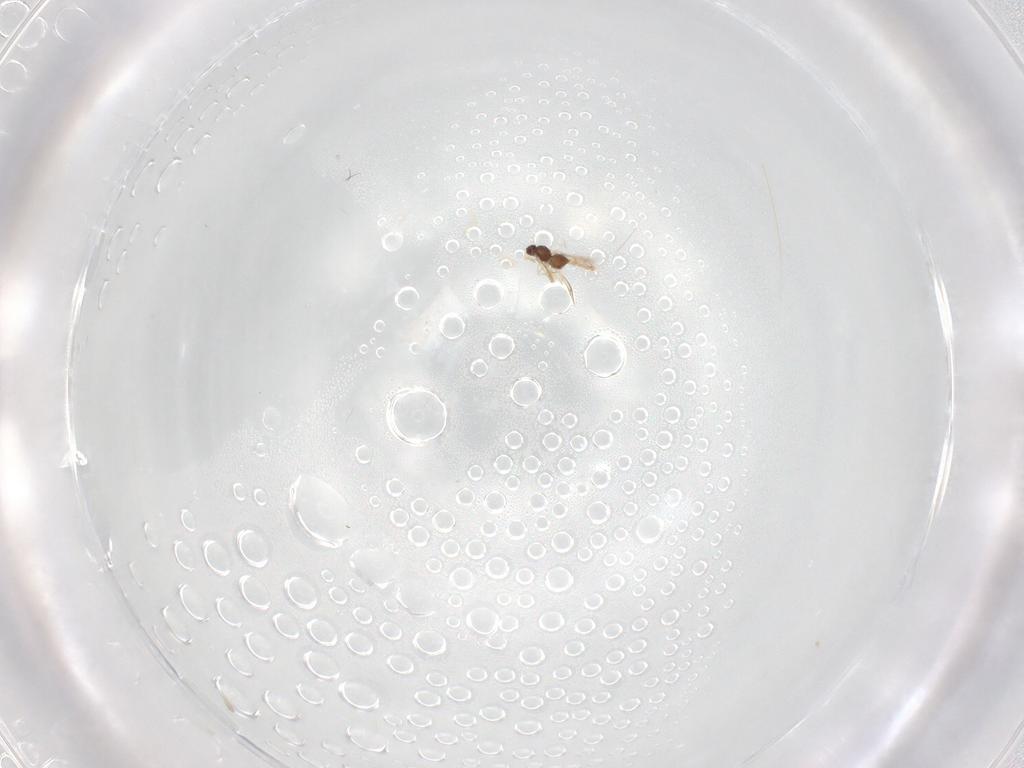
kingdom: Animalia
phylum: Arthropoda
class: Insecta
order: Hymenoptera
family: Chalcididae
